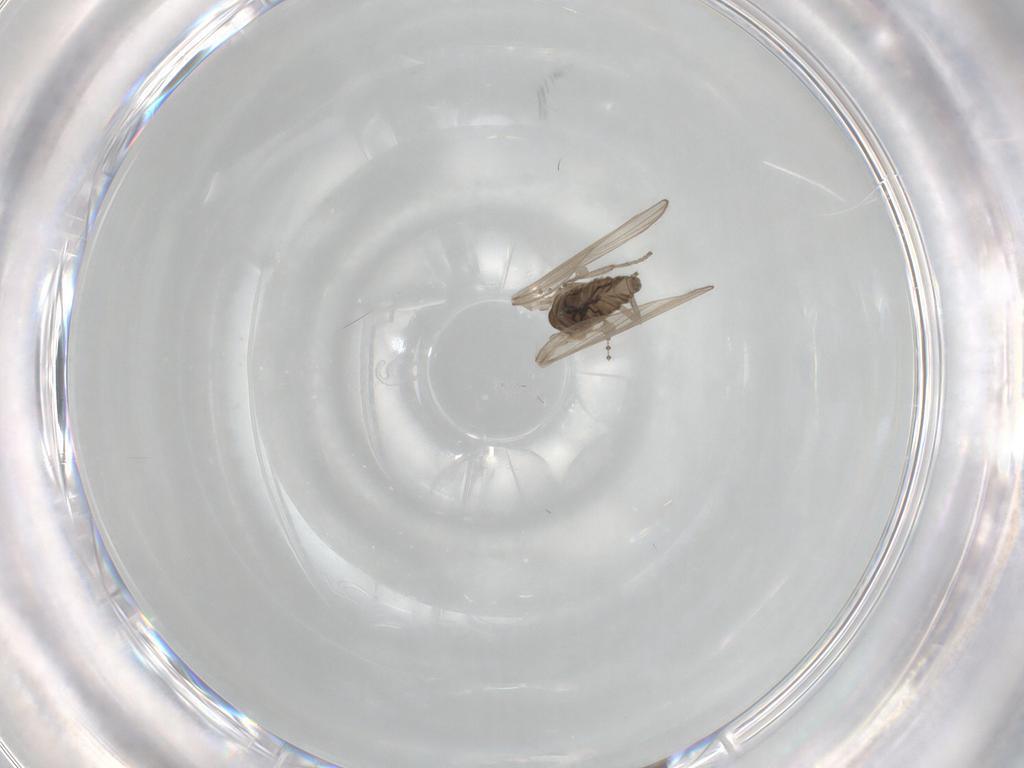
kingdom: Animalia
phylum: Arthropoda
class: Insecta
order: Diptera
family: Psychodidae
